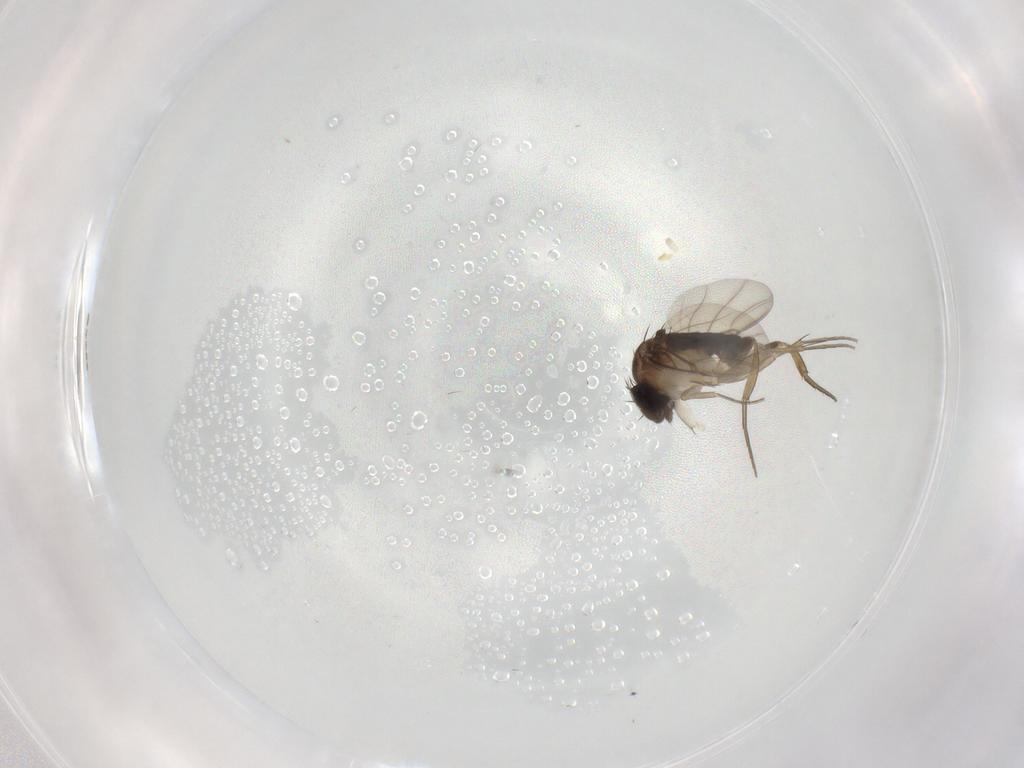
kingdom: Animalia
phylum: Arthropoda
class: Insecta
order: Diptera
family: Ceratopogonidae
